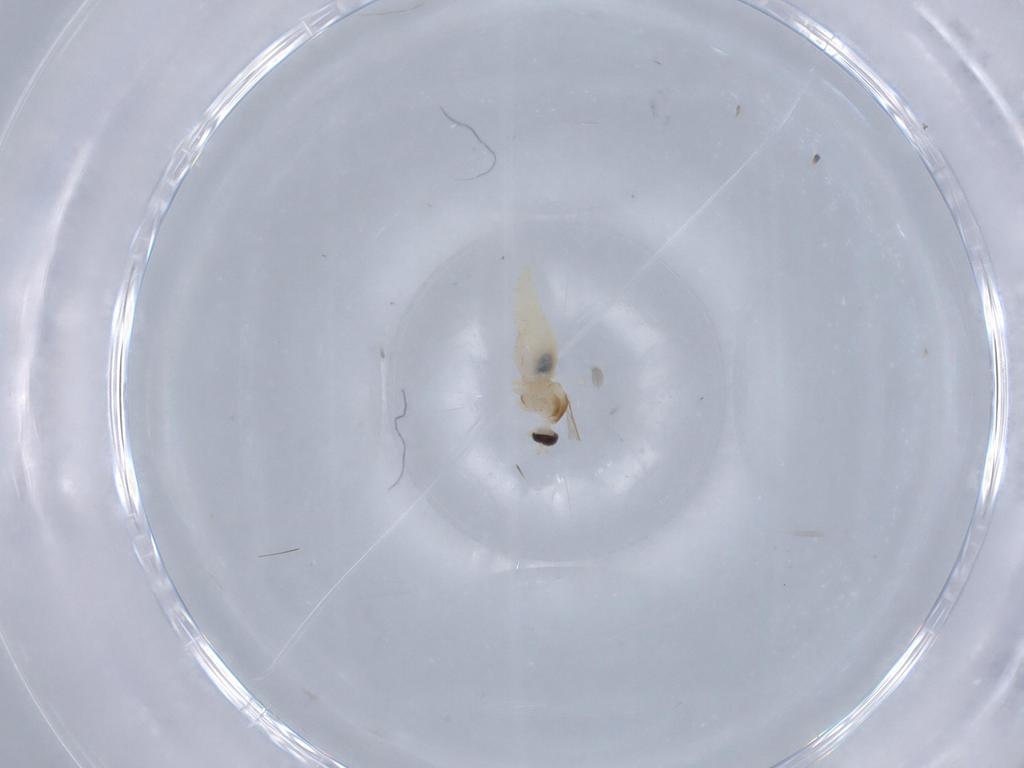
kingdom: Animalia
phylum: Arthropoda
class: Insecta
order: Diptera
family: Cecidomyiidae
